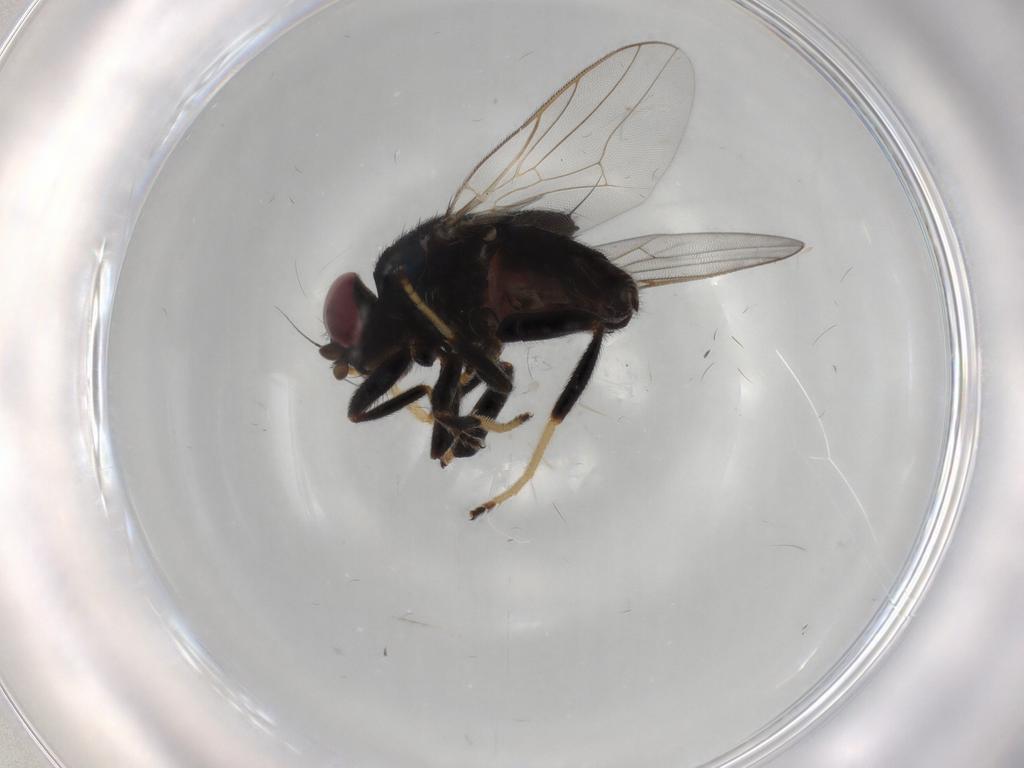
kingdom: Animalia
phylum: Arthropoda
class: Insecta
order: Diptera
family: Chloropidae
